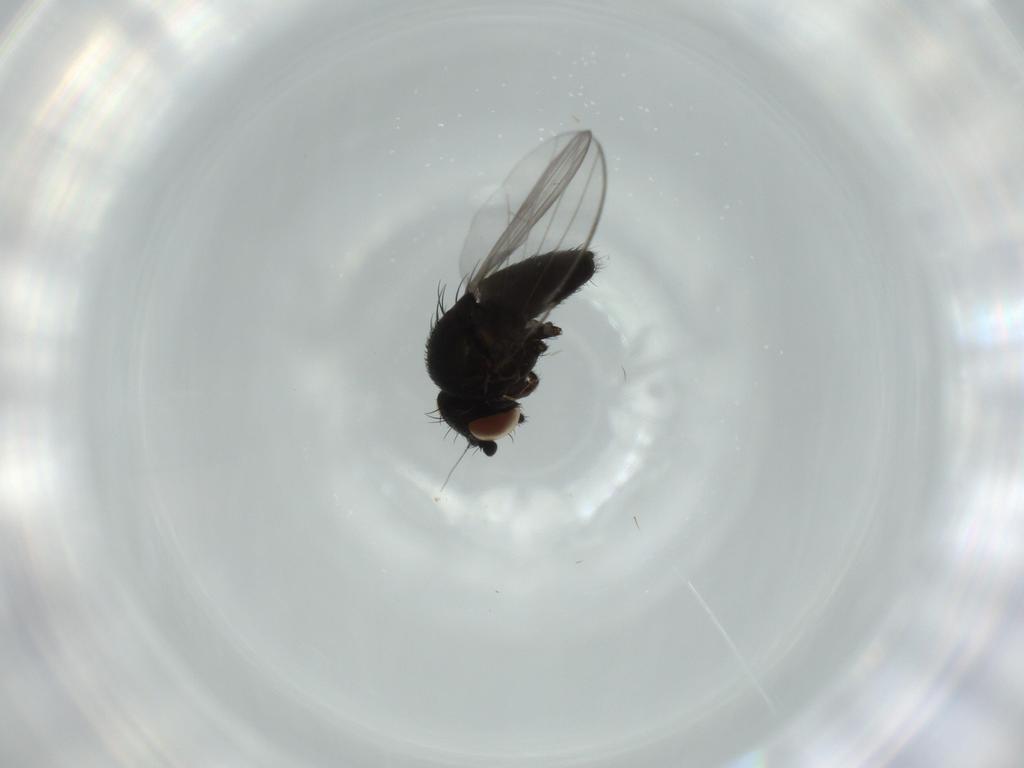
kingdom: Animalia
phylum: Arthropoda
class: Insecta
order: Diptera
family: Milichiidae
